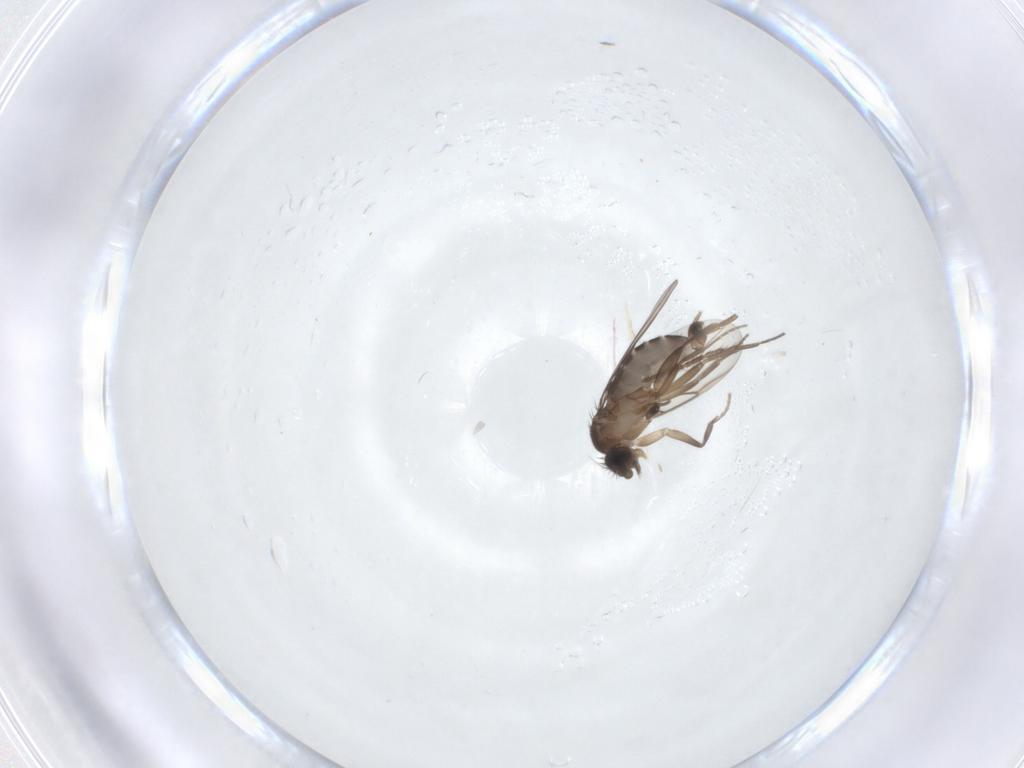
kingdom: Animalia
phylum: Arthropoda
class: Insecta
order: Diptera
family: Phoridae
